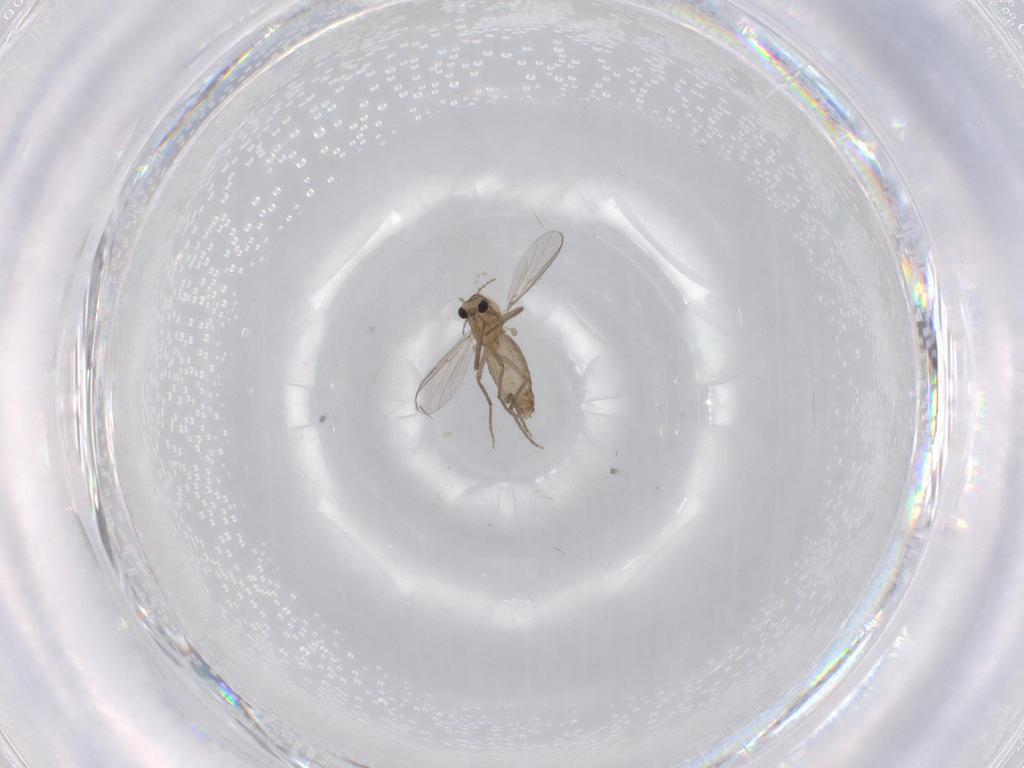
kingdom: Animalia
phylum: Arthropoda
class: Insecta
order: Diptera
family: Chironomidae
